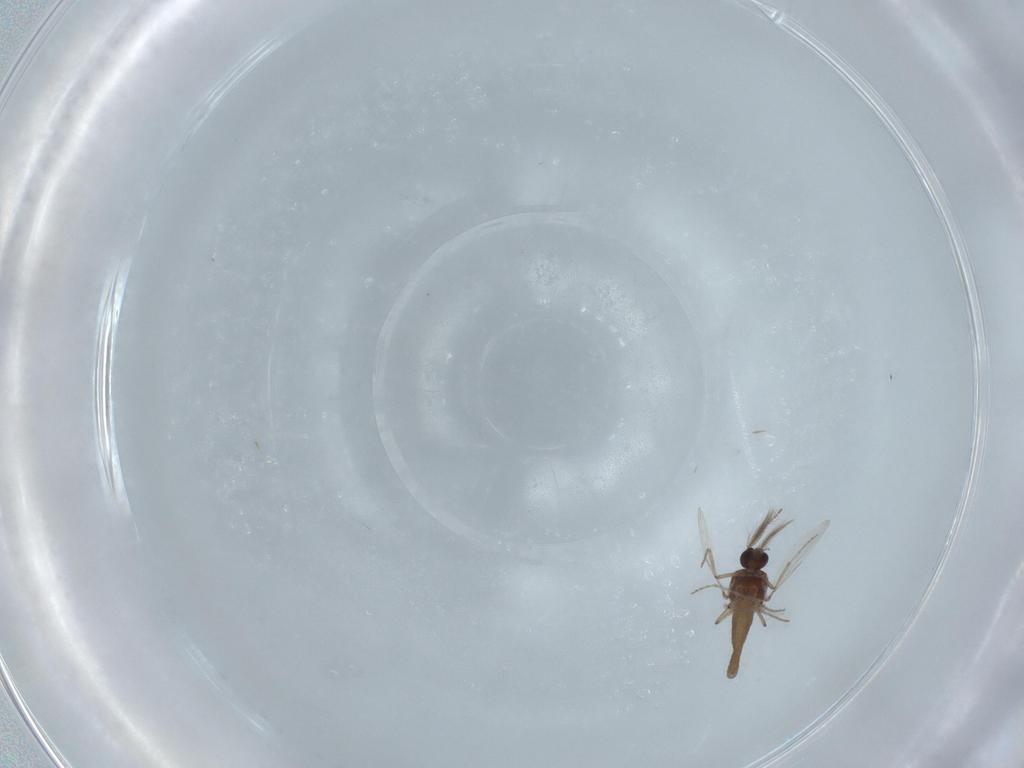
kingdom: Animalia
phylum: Arthropoda
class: Insecta
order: Diptera
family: Ceratopogonidae
